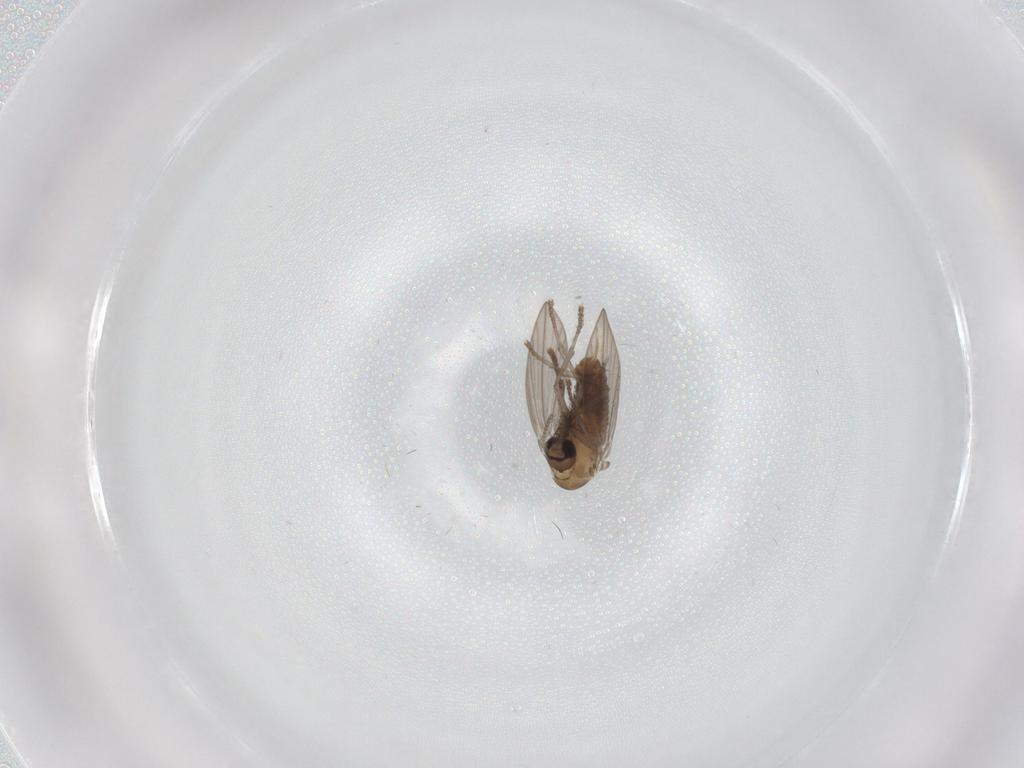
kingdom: Animalia
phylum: Arthropoda
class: Insecta
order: Diptera
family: Psychodidae
